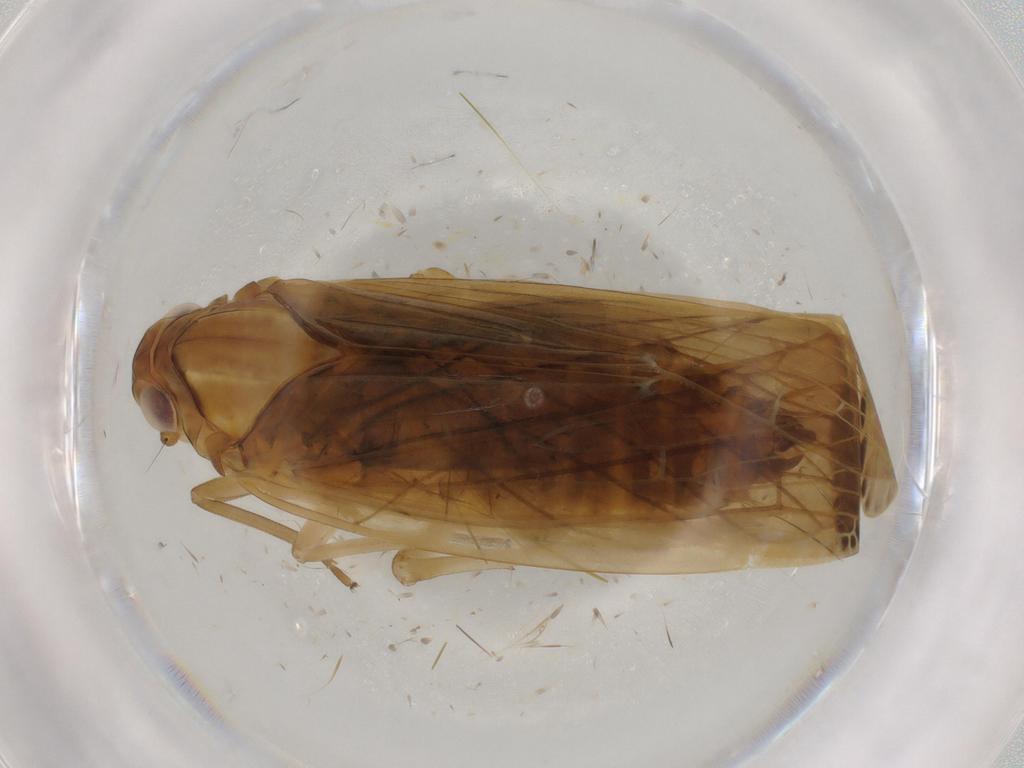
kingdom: Animalia
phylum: Arthropoda
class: Insecta
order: Hemiptera
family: Achilidae
